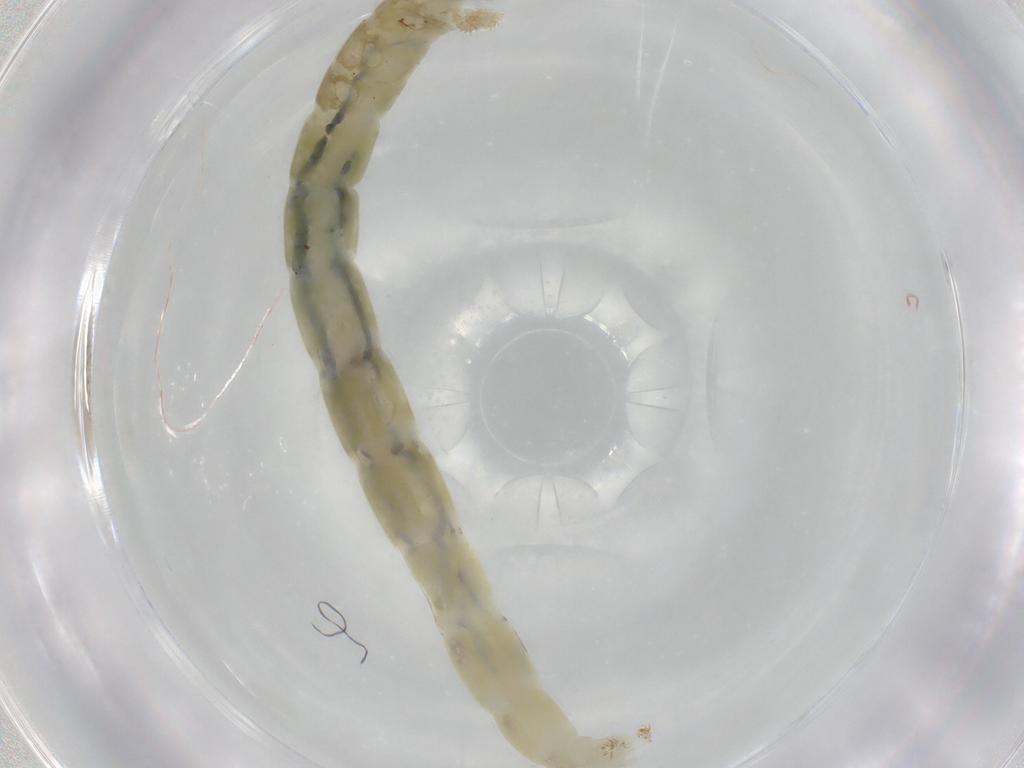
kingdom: Animalia
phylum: Arthropoda
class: Insecta
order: Diptera
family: Chironomidae
